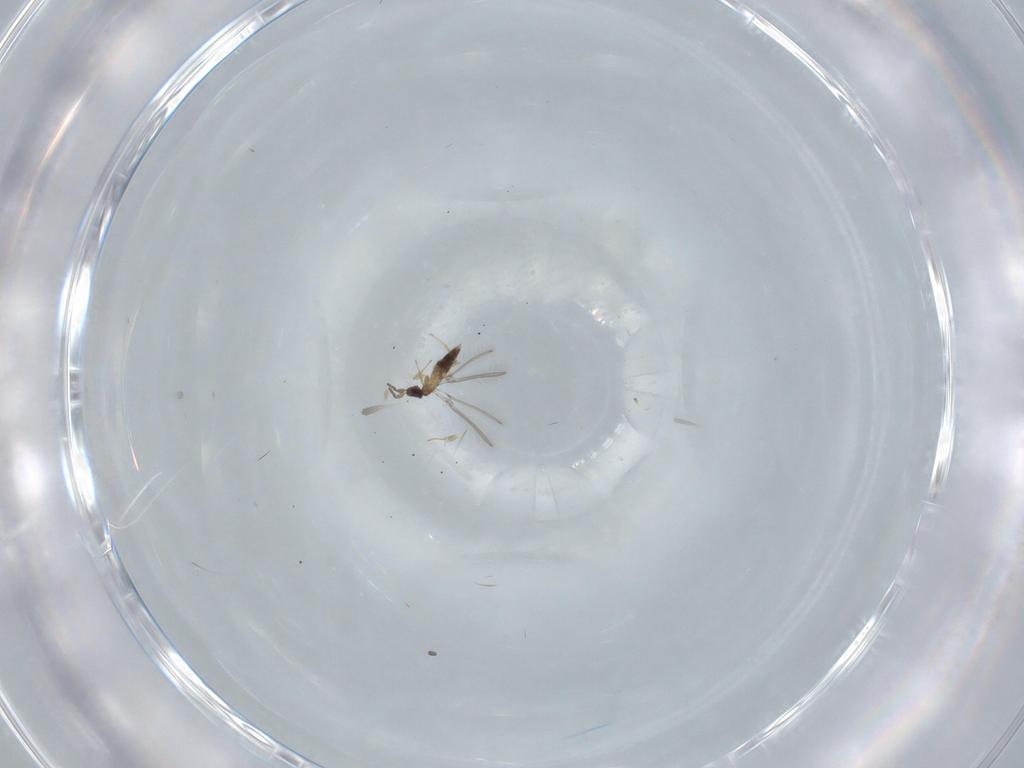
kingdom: Animalia
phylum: Arthropoda
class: Insecta
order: Hymenoptera
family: Mymaridae
